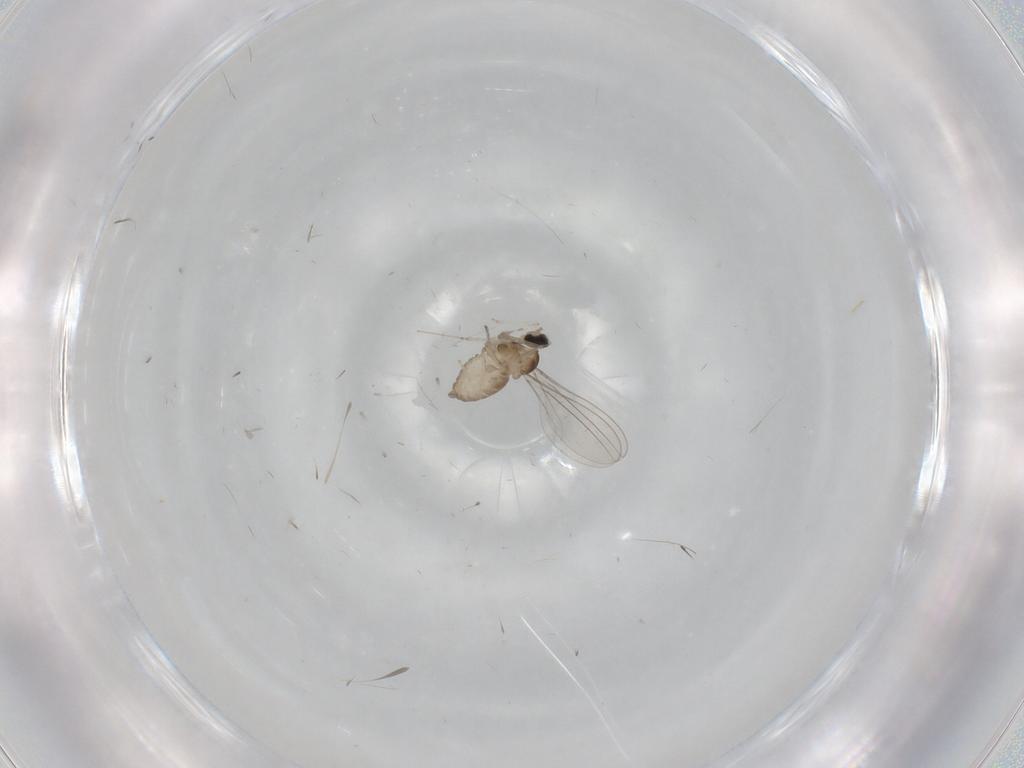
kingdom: Animalia
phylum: Arthropoda
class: Insecta
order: Diptera
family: Cecidomyiidae
